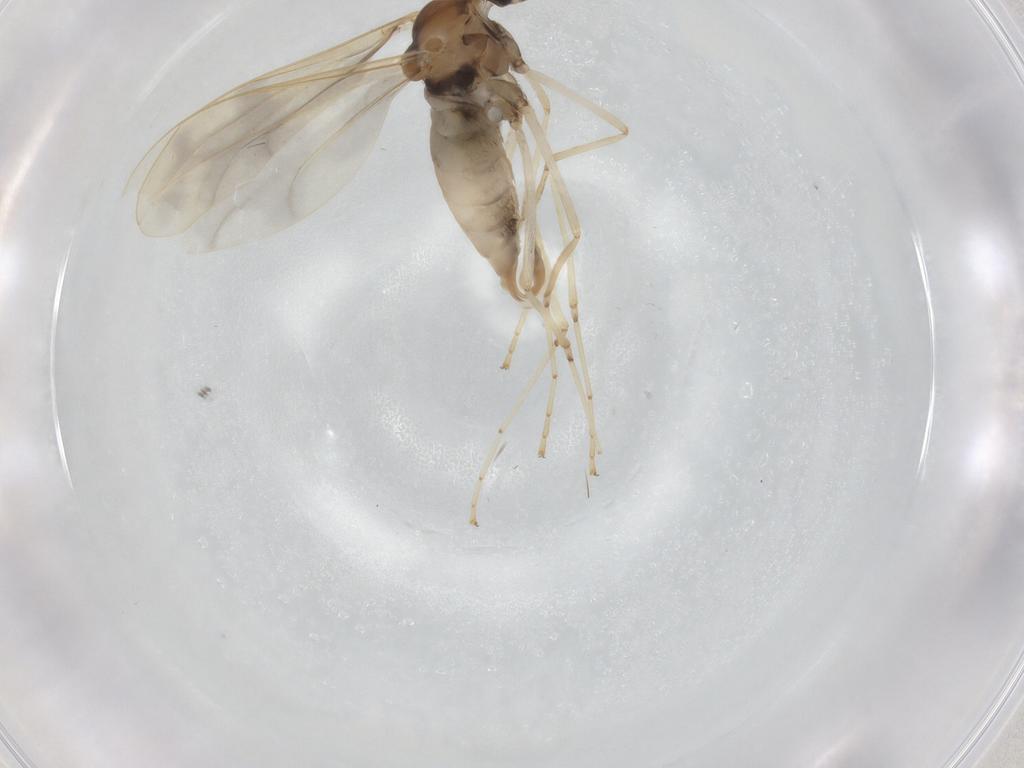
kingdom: Animalia
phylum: Arthropoda
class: Insecta
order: Diptera
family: Cecidomyiidae
